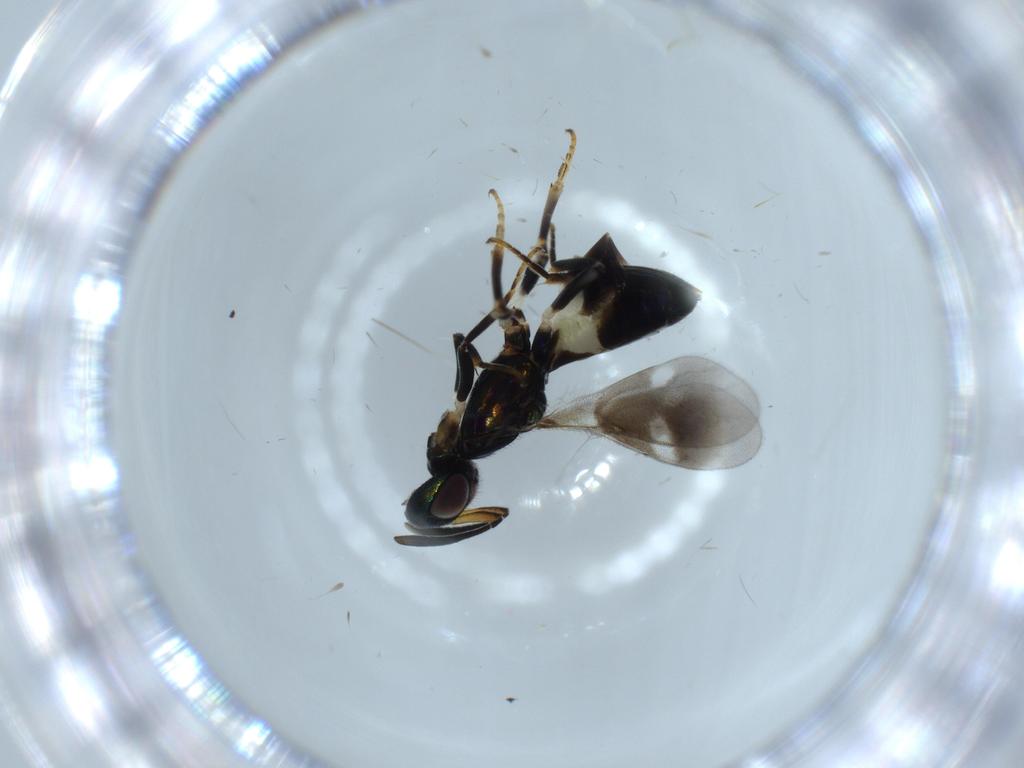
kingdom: Animalia
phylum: Arthropoda
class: Insecta
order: Hymenoptera
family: Eupelmidae
